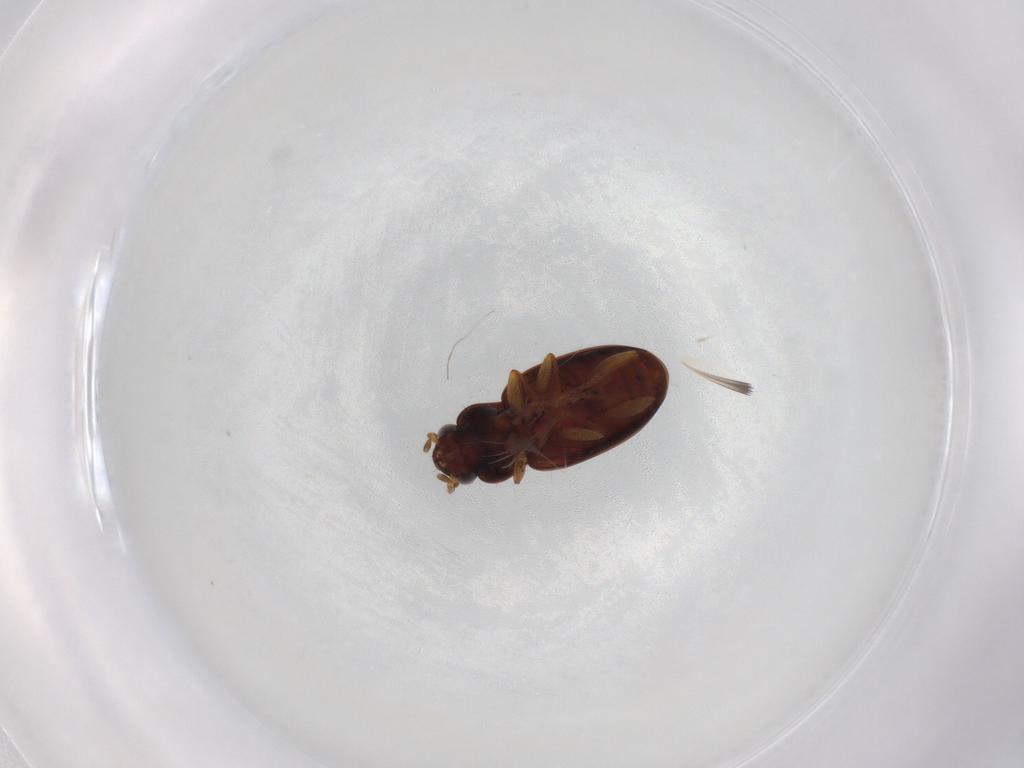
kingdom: Animalia
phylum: Arthropoda
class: Insecta
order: Coleoptera
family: Carabidae
